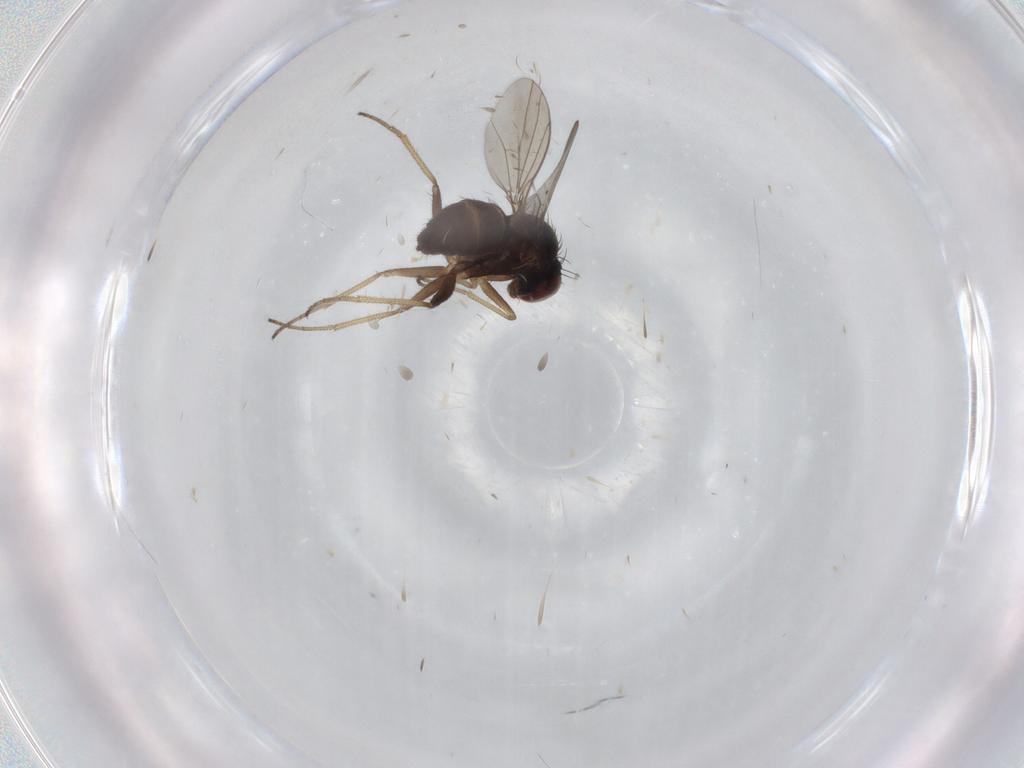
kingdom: Animalia
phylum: Arthropoda
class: Insecta
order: Diptera
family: Dolichopodidae
